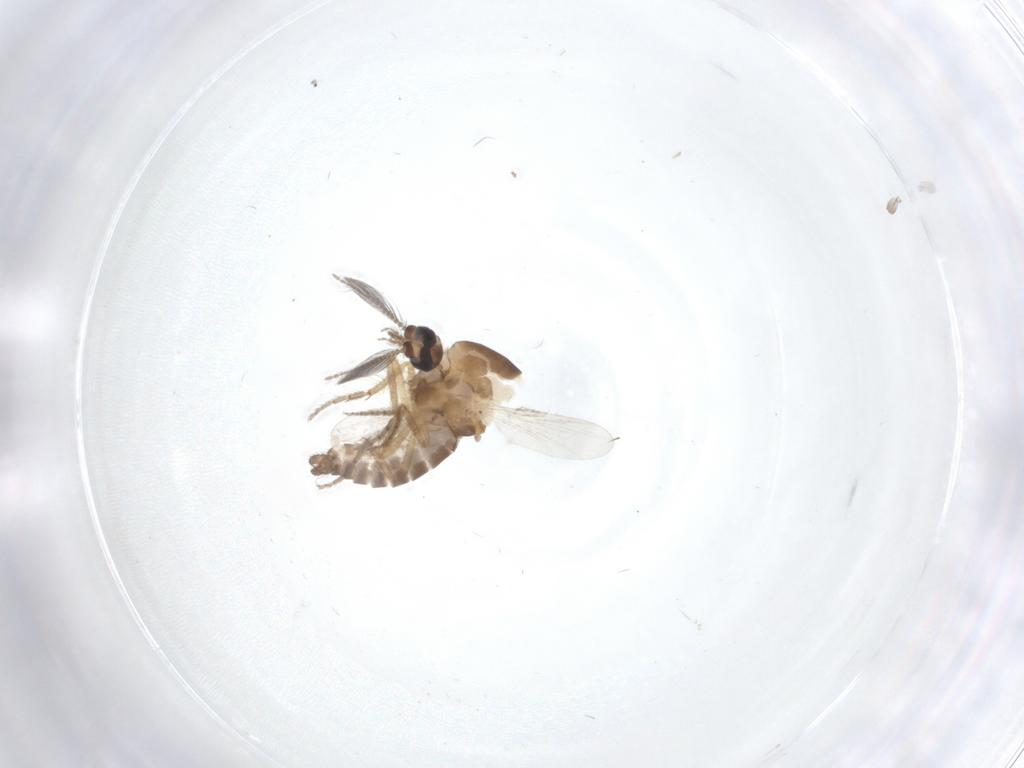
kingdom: Animalia
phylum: Arthropoda
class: Insecta
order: Diptera
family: Ceratopogonidae
